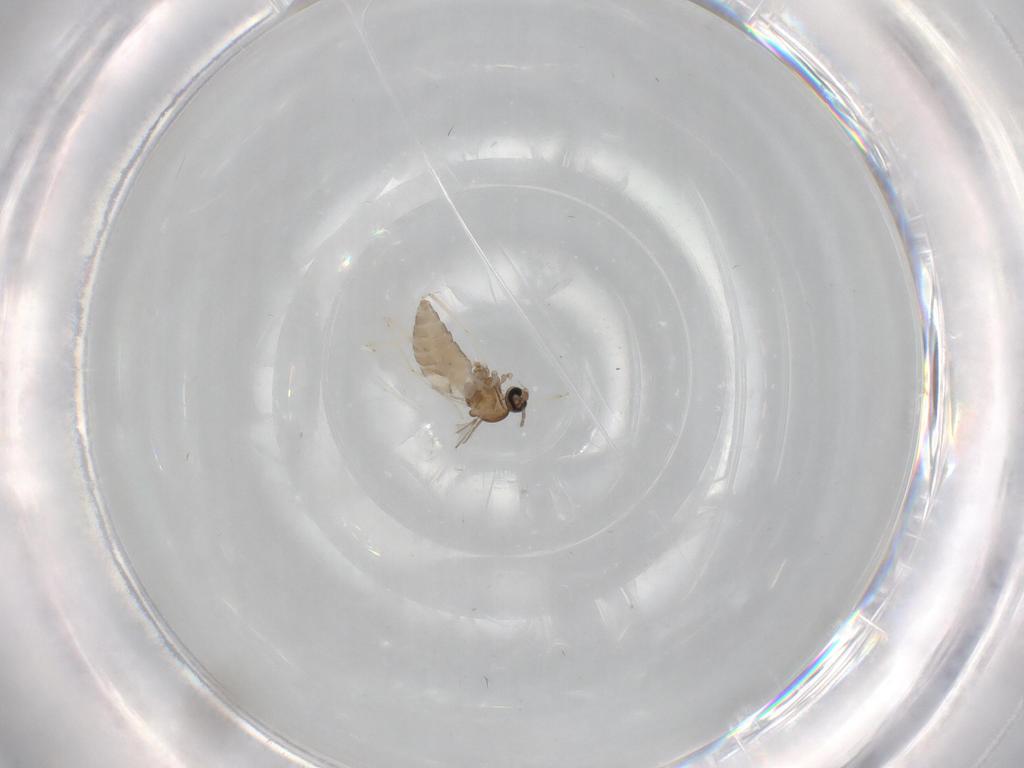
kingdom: Animalia
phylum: Arthropoda
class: Insecta
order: Diptera
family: Cecidomyiidae
